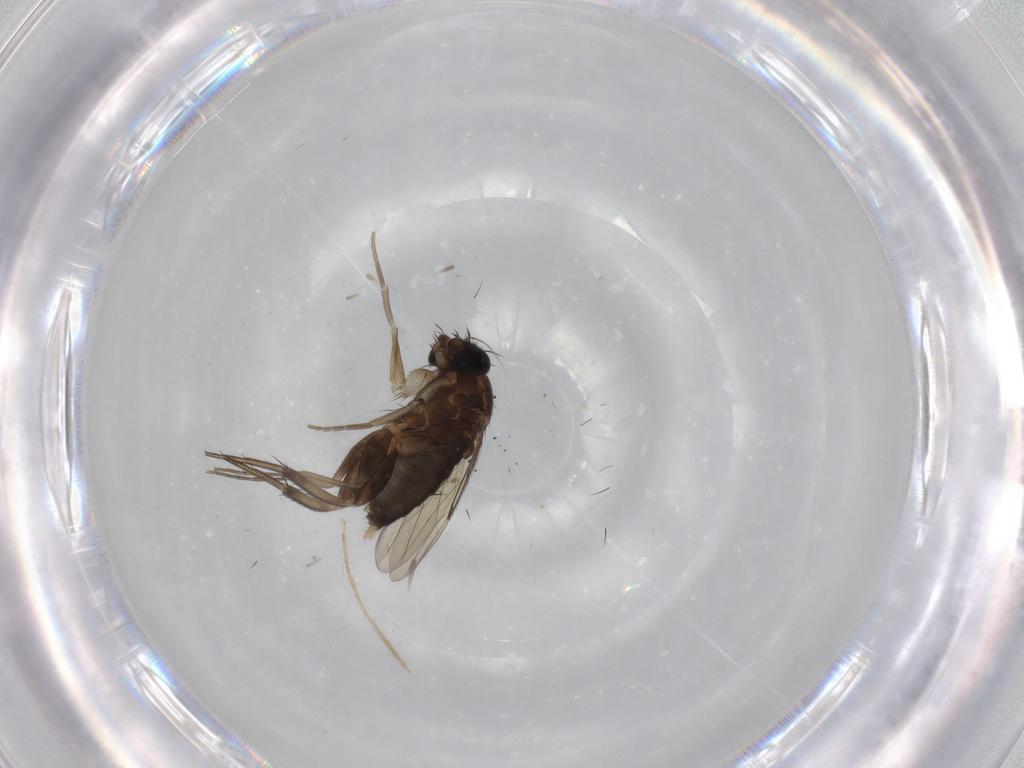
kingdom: Animalia
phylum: Arthropoda
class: Insecta
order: Diptera
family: Phoridae
